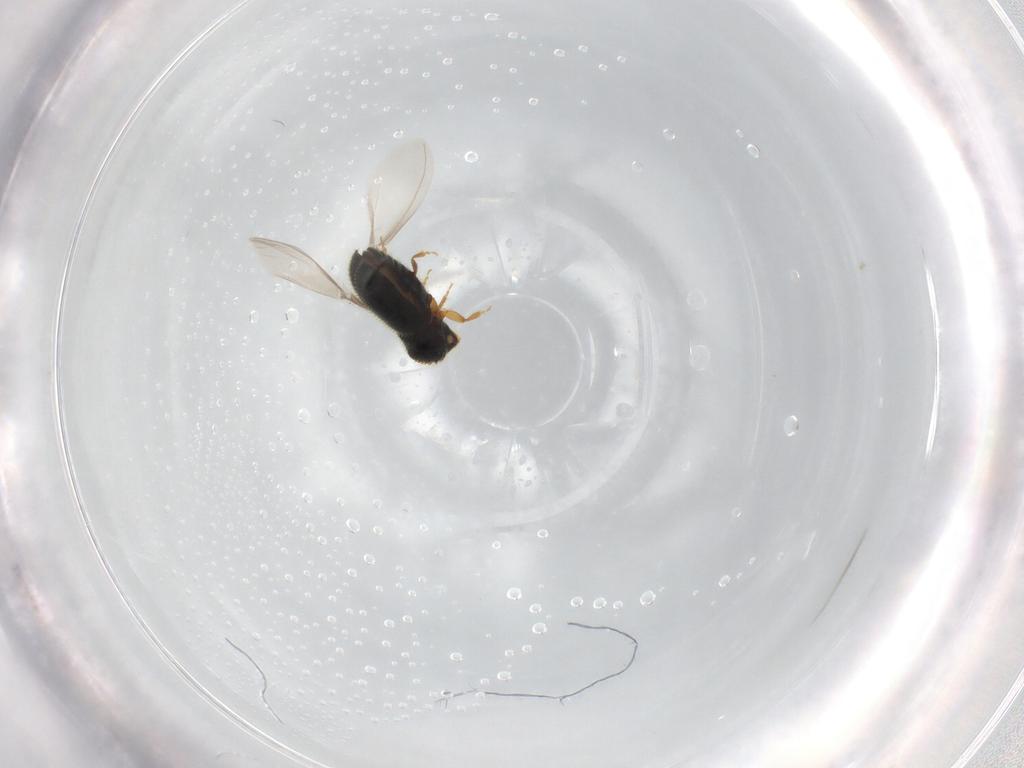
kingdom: Animalia
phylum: Arthropoda
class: Insecta
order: Coleoptera
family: Curculionidae
